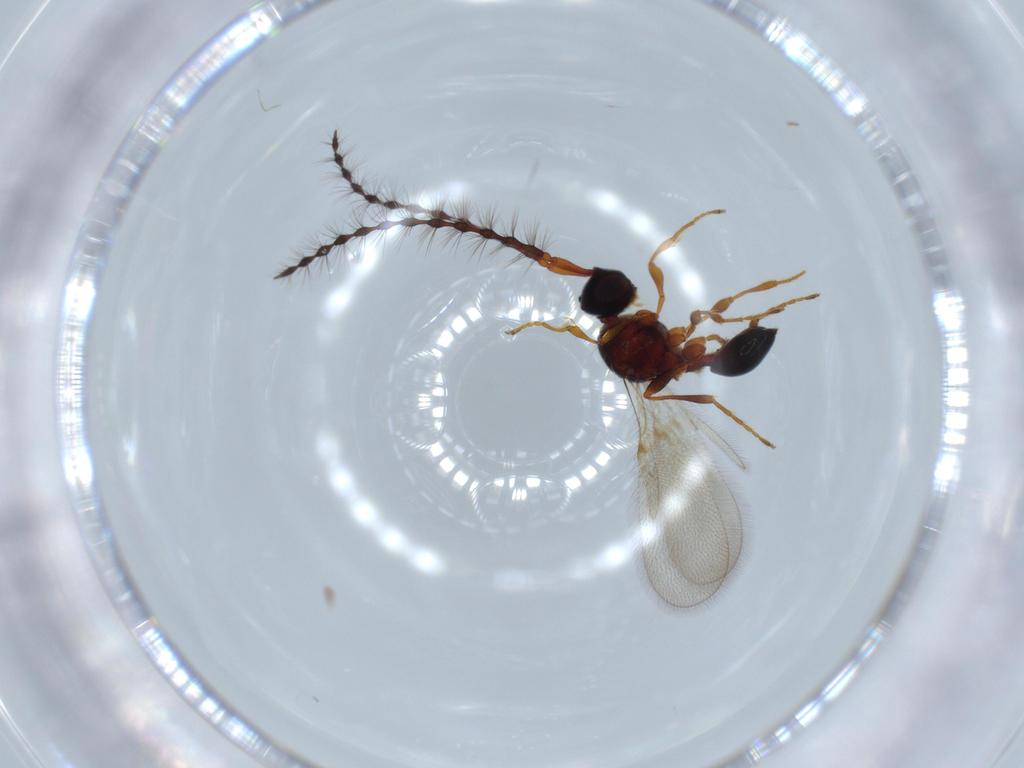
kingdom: Animalia
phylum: Arthropoda
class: Insecta
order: Hymenoptera
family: Diapriidae
